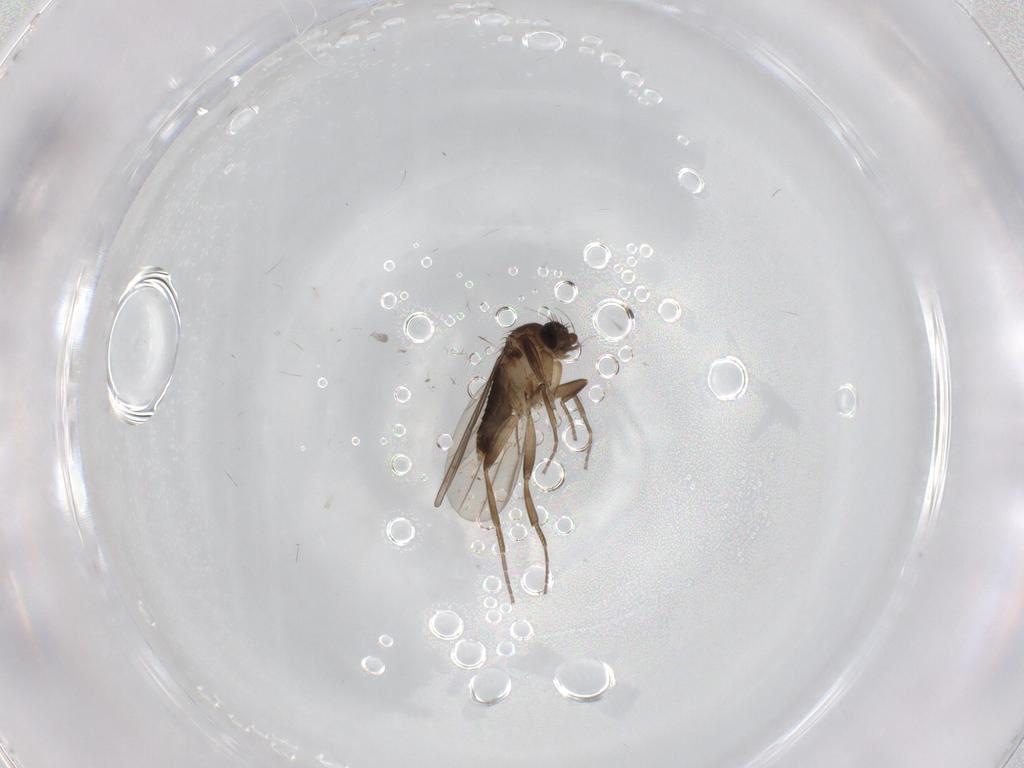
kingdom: Animalia
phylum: Arthropoda
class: Insecta
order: Diptera
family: Phoridae
